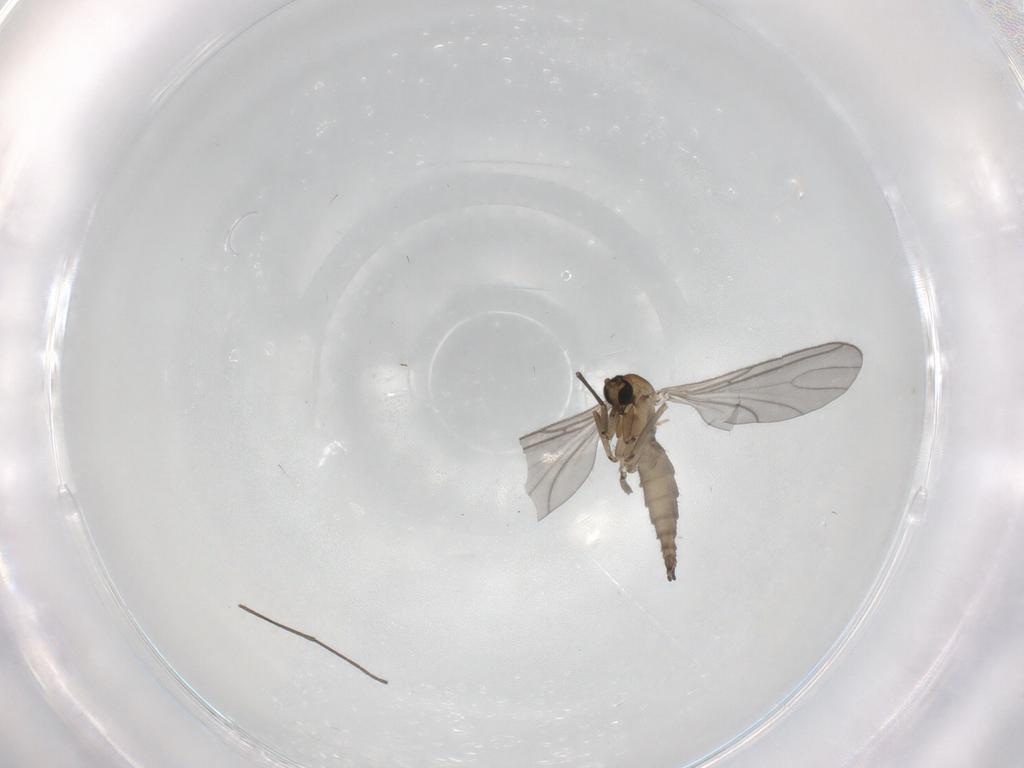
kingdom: Animalia
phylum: Arthropoda
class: Insecta
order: Diptera
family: Sciaridae
